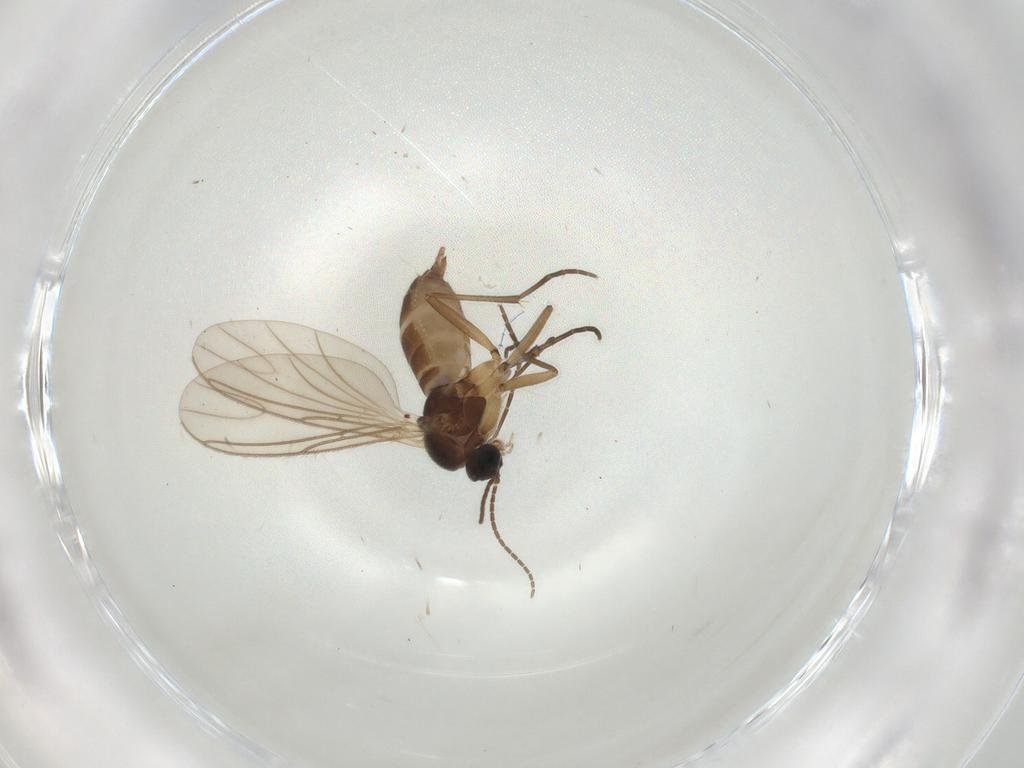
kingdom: Animalia
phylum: Arthropoda
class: Insecta
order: Diptera
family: Sciaridae
